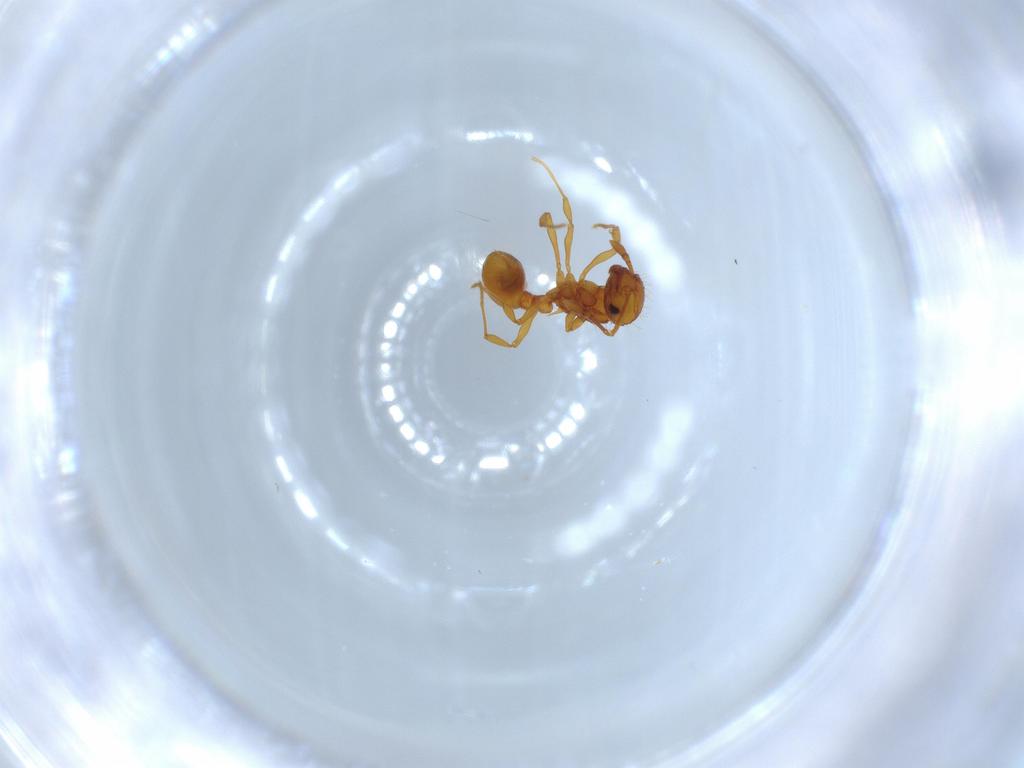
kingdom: Animalia
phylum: Arthropoda
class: Insecta
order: Hymenoptera
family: Formicidae
